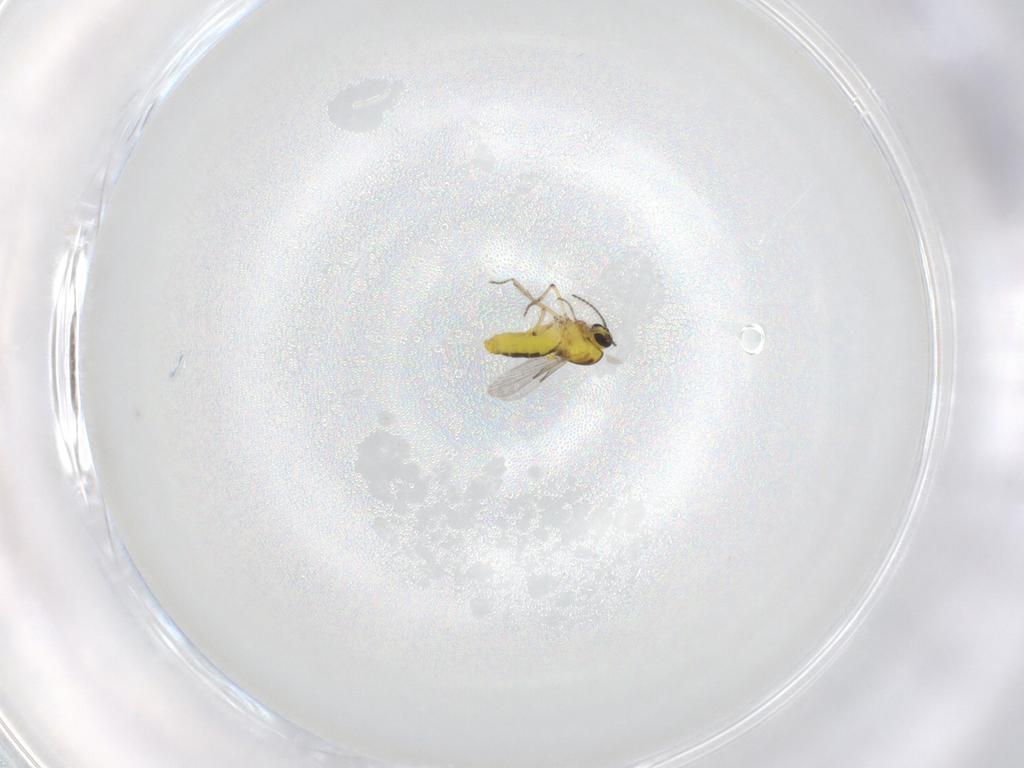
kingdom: Animalia
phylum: Arthropoda
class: Insecta
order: Diptera
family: Ceratopogonidae
